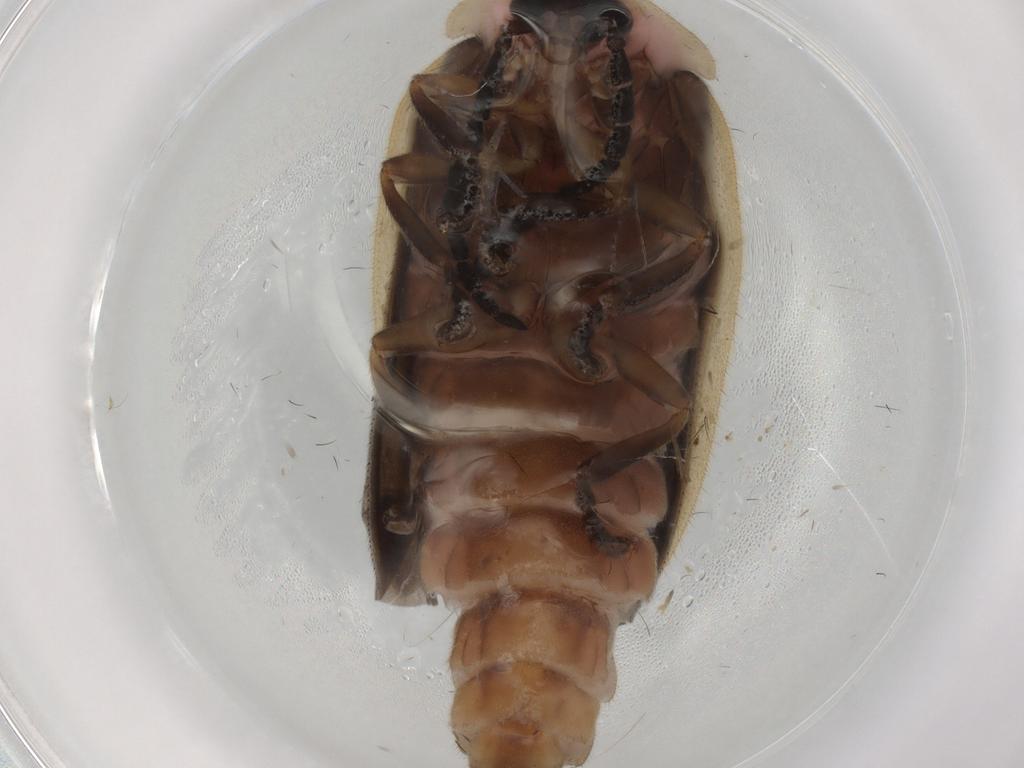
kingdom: Animalia
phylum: Arthropoda
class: Insecta
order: Coleoptera
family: Lampyridae
